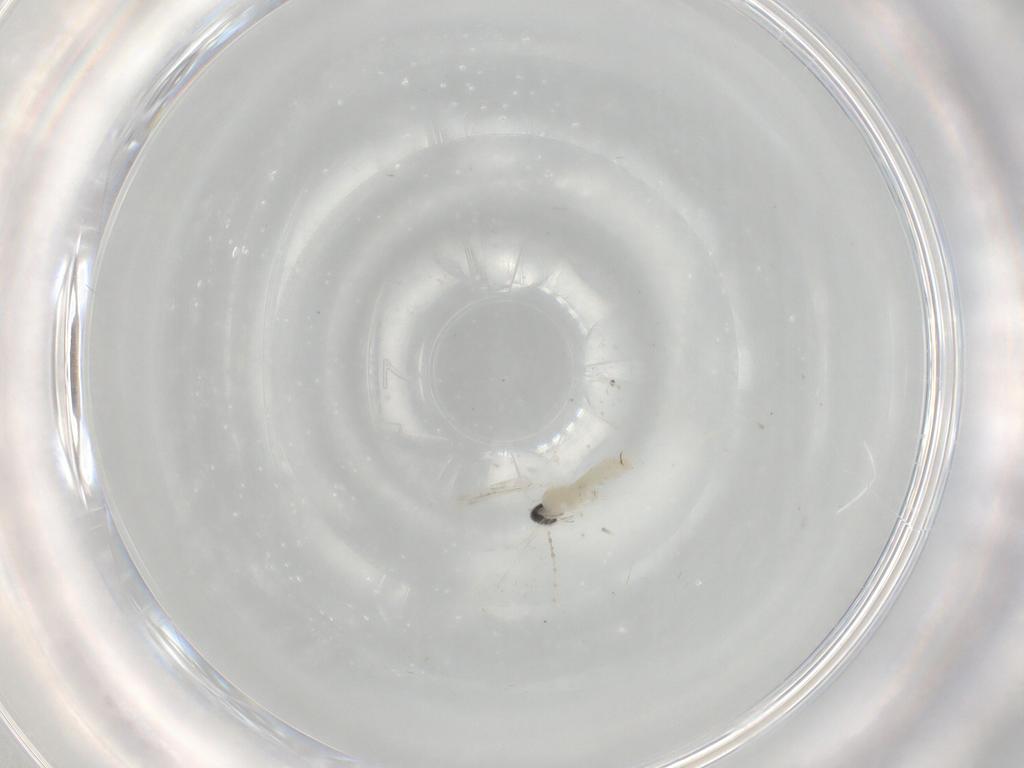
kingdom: Animalia
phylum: Arthropoda
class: Insecta
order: Diptera
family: Cecidomyiidae
